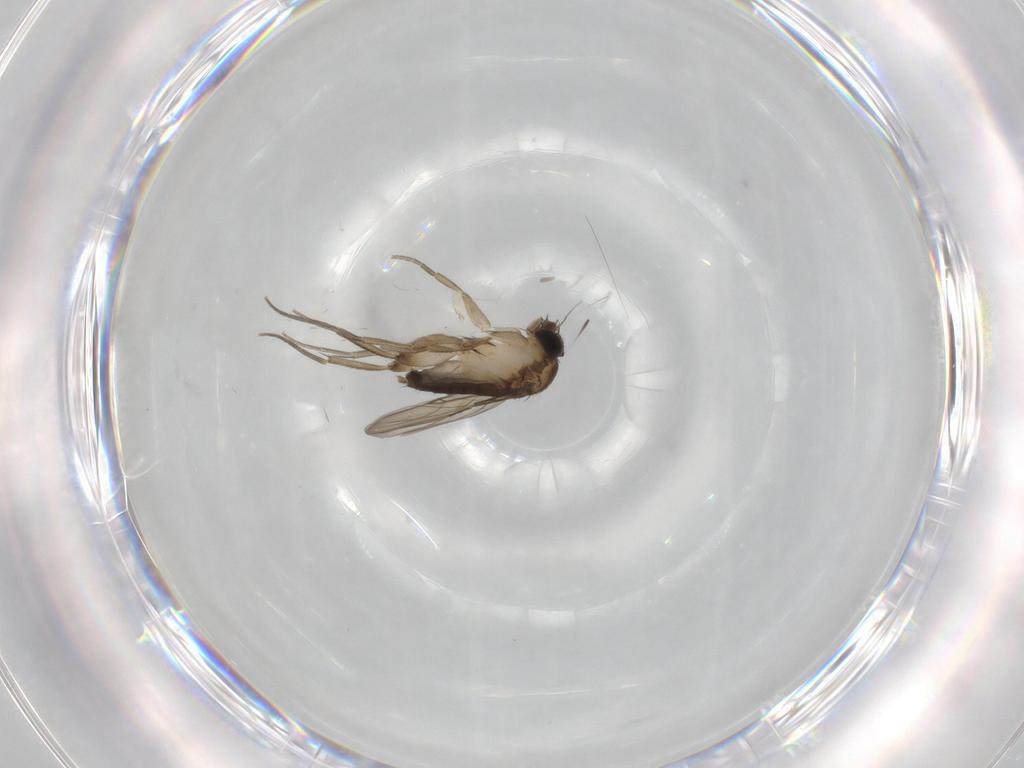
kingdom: Animalia
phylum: Arthropoda
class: Insecta
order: Diptera
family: Phoridae
